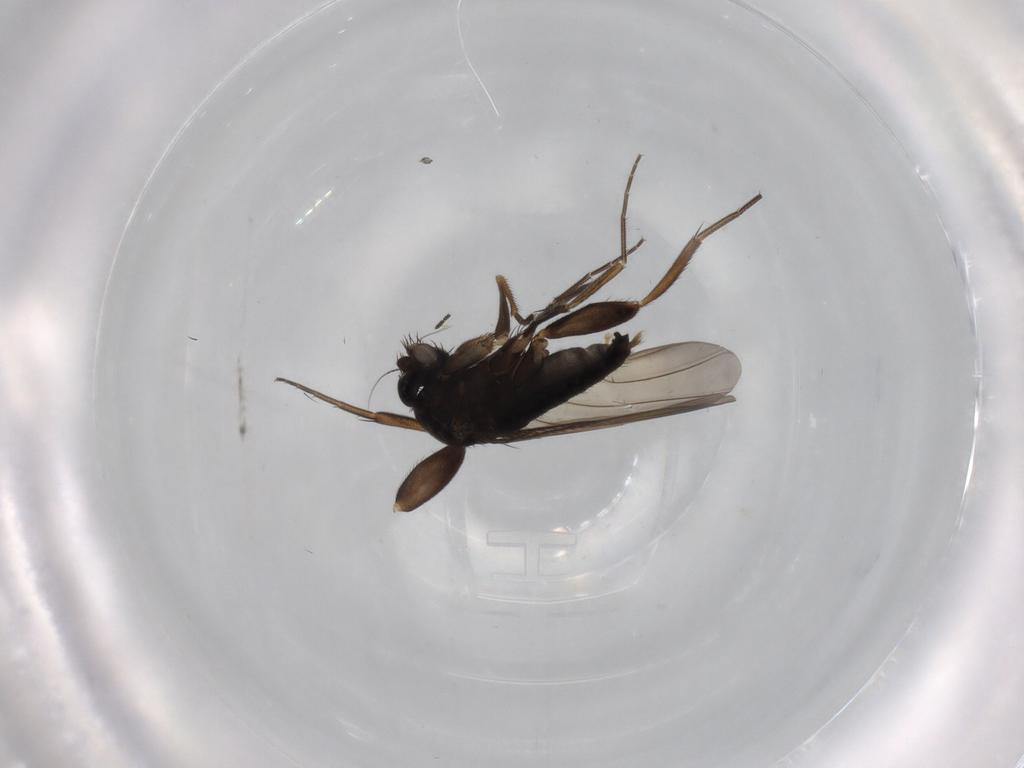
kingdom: Animalia
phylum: Arthropoda
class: Insecta
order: Diptera
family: Phoridae
